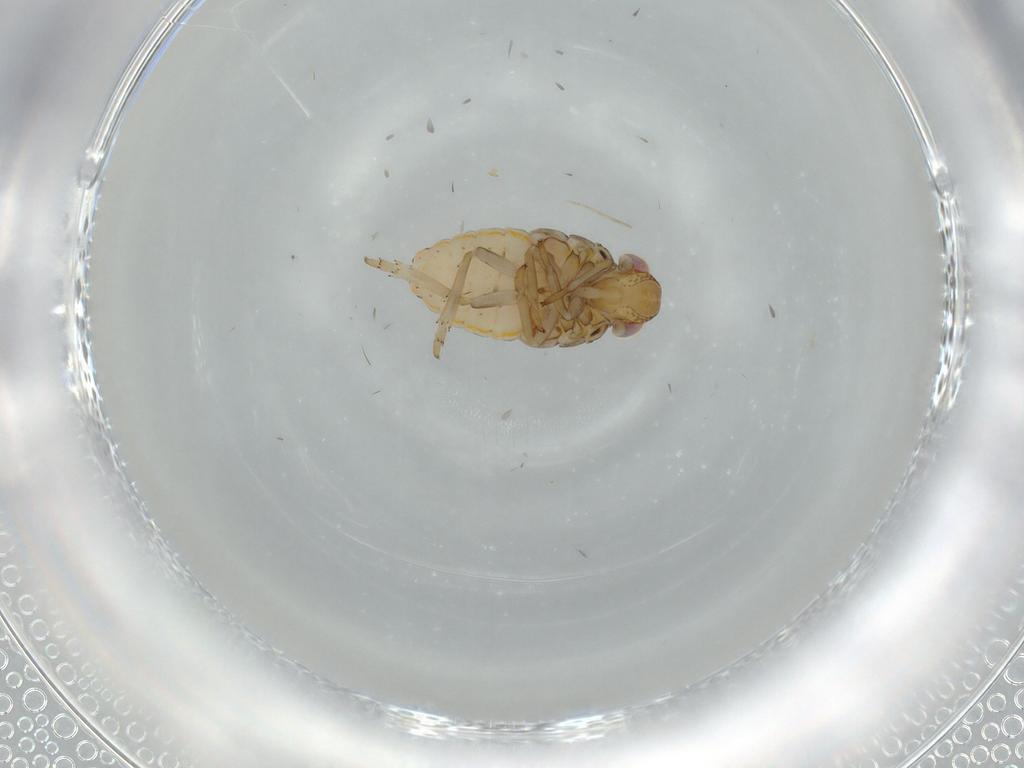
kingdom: Animalia
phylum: Arthropoda
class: Insecta
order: Hemiptera
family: Issidae
